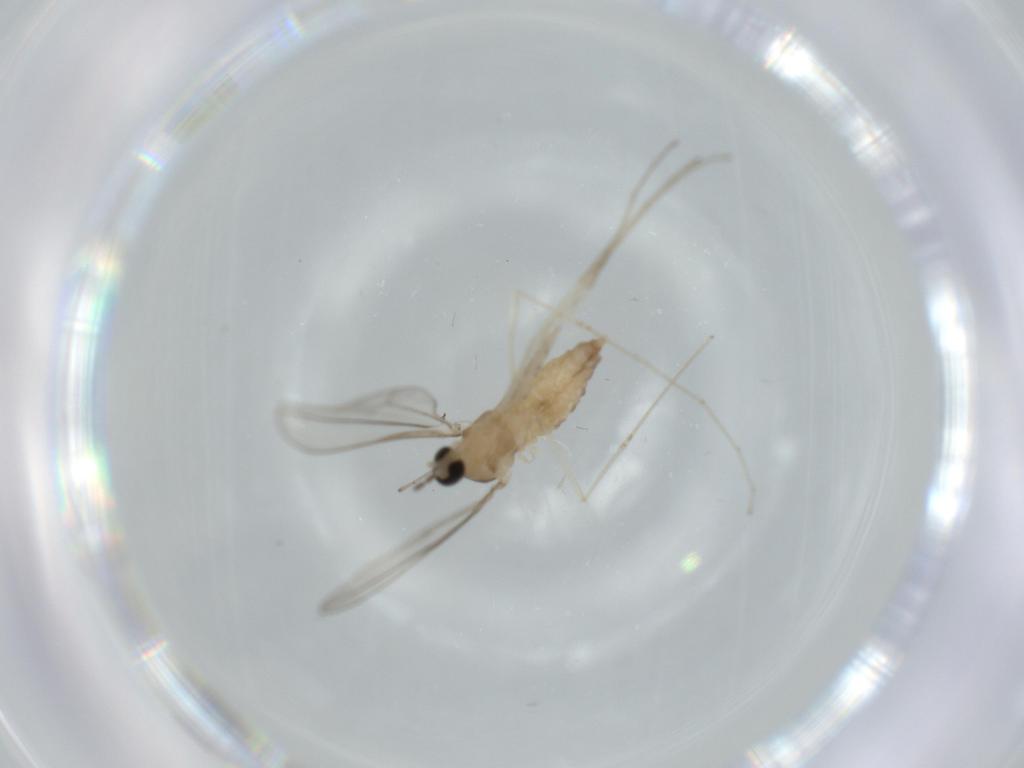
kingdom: Animalia
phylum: Arthropoda
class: Insecta
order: Diptera
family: Cecidomyiidae
